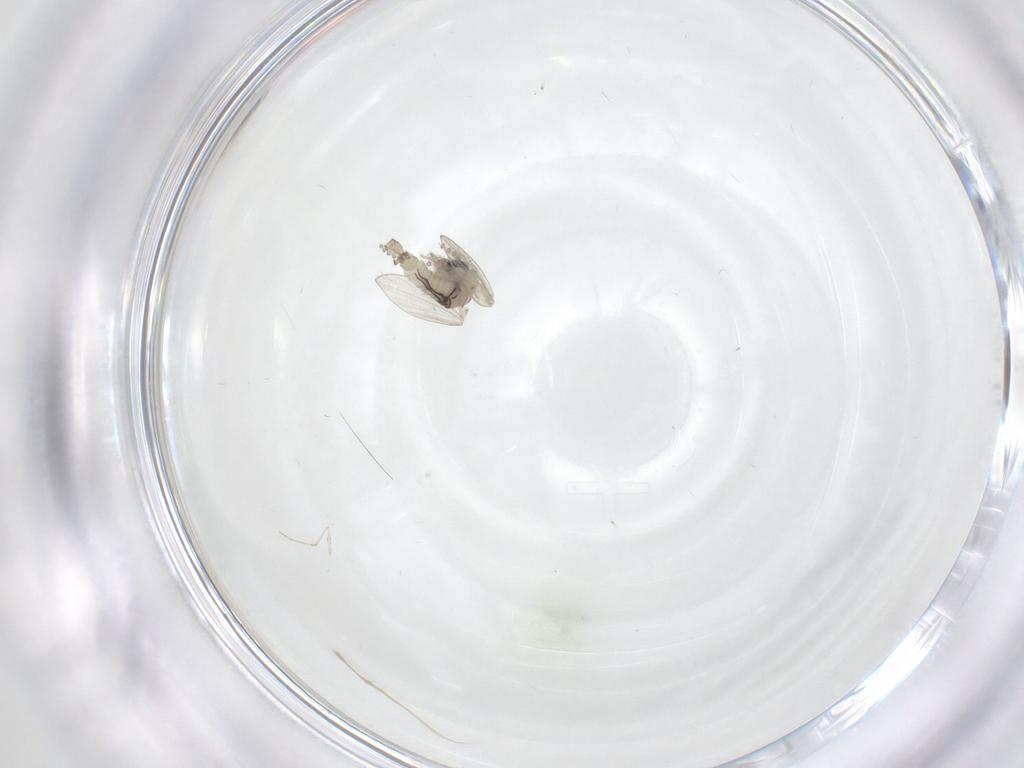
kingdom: Animalia
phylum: Arthropoda
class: Insecta
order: Diptera
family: Psychodidae
